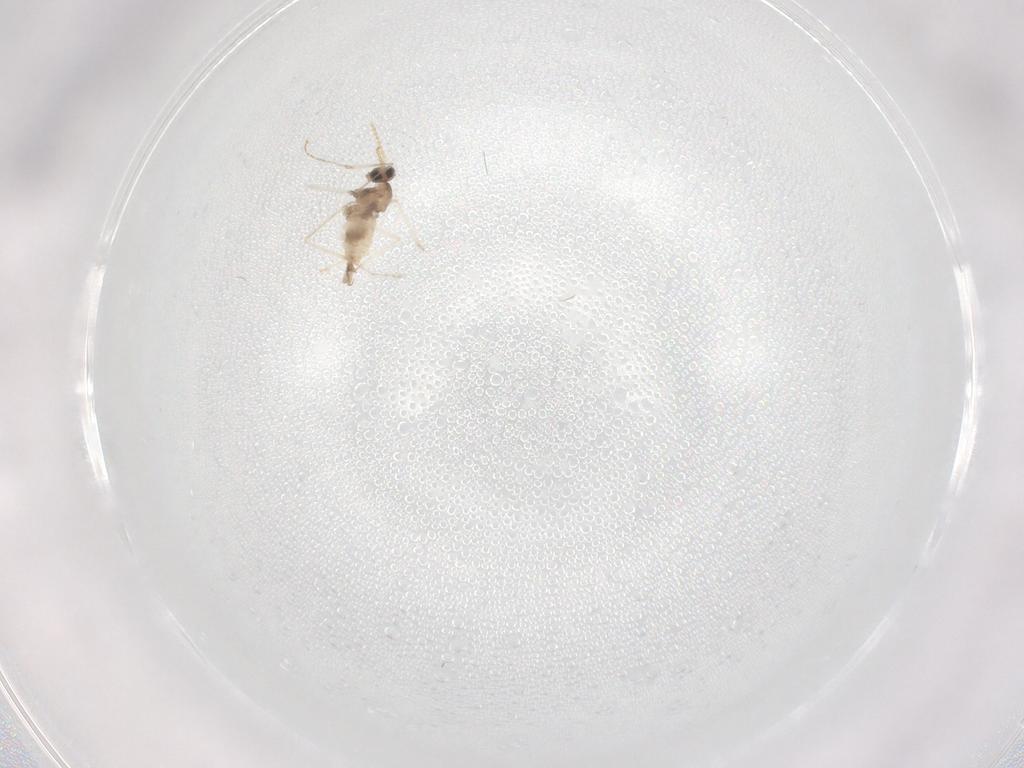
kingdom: Animalia
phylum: Arthropoda
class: Insecta
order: Diptera
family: Cecidomyiidae
